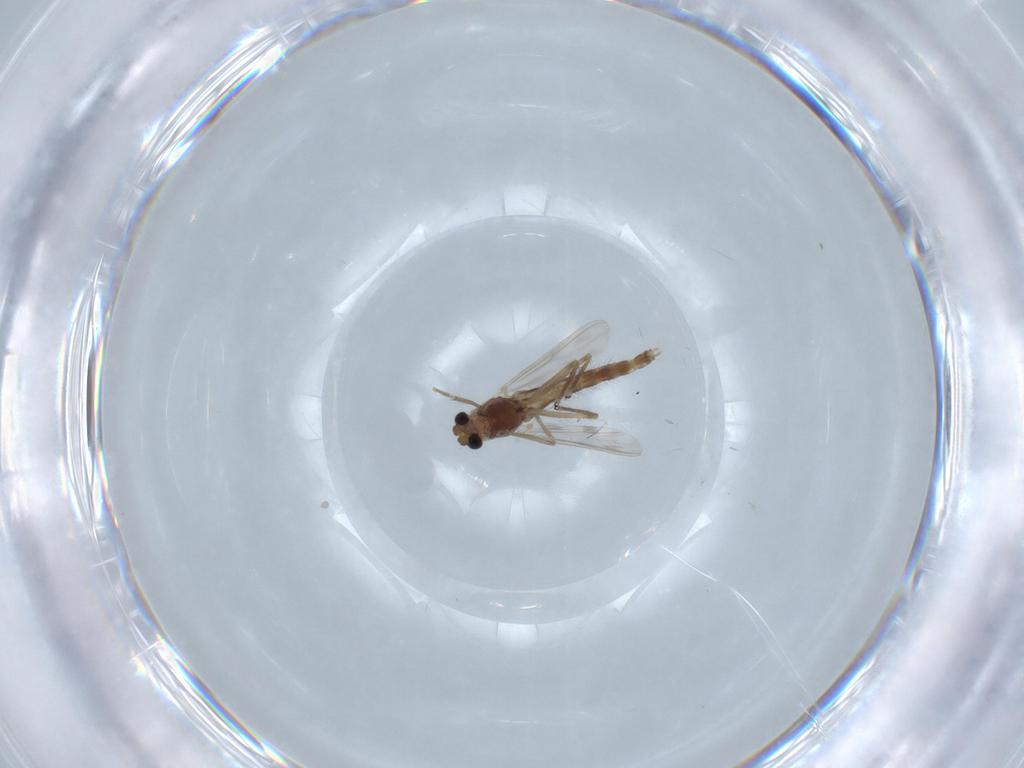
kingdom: Animalia
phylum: Arthropoda
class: Insecta
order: Diptera
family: Chironomidae
